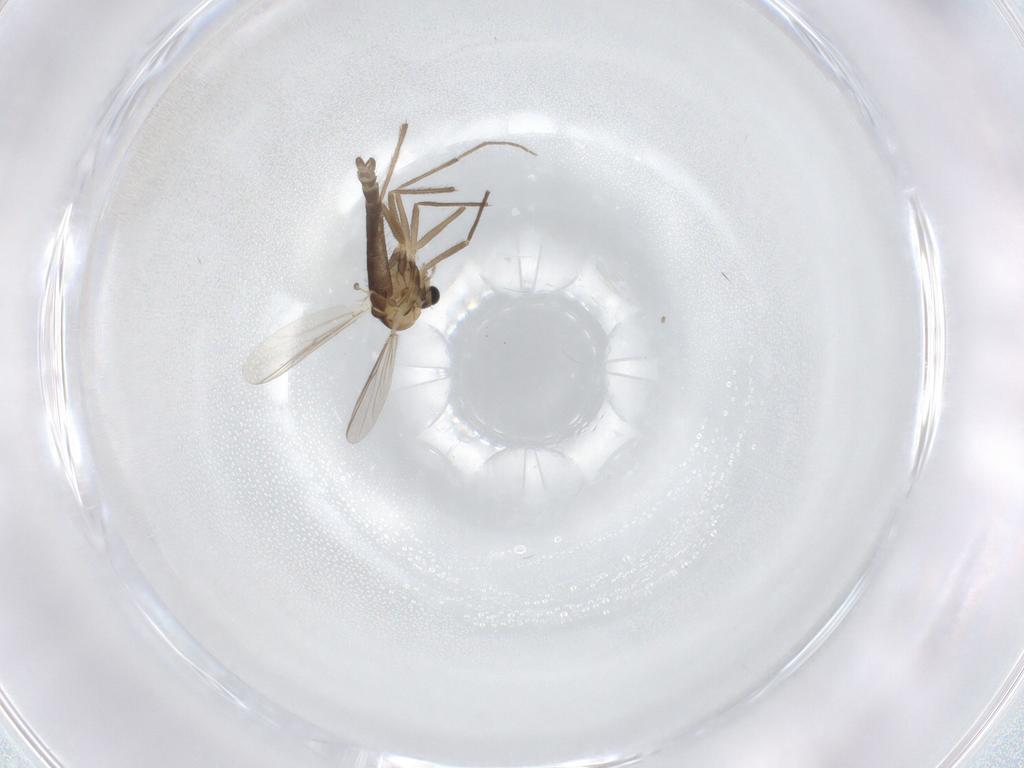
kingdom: Animalia
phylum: Arthropoda
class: Insecta
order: Diptera
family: Chironomidae
